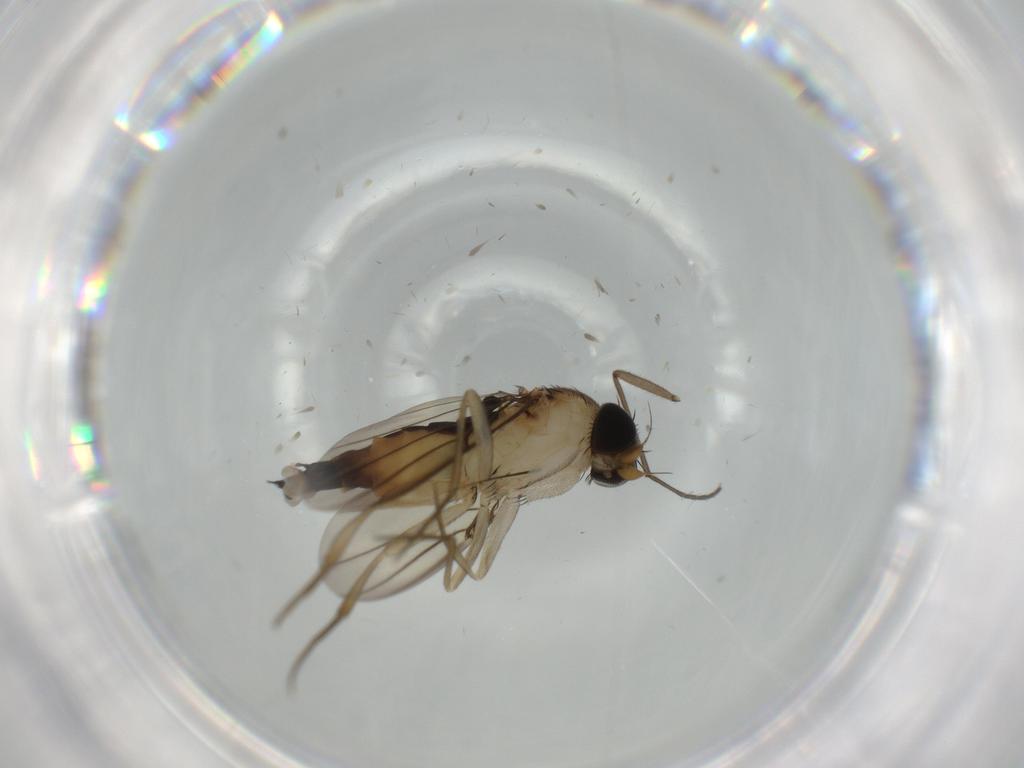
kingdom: Animalia
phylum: Arthropoda
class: Insecta
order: Diptera
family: Phoridae
